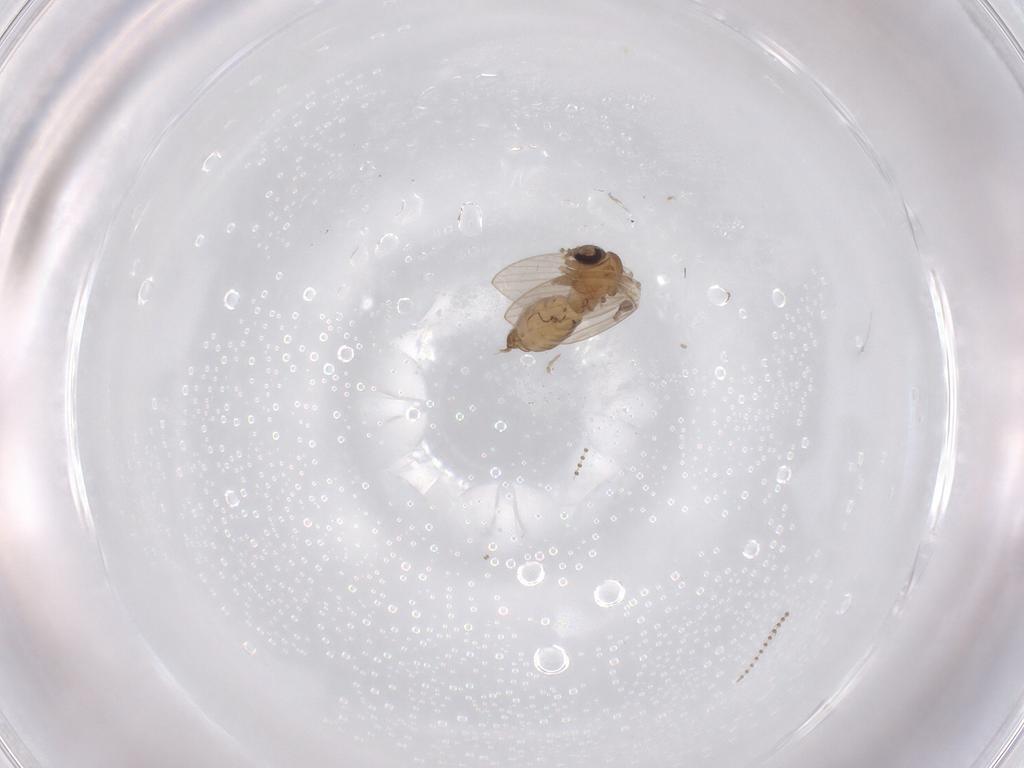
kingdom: Animalia
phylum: Arthropoda
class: Insecta
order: Diptera
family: Psychodidae
